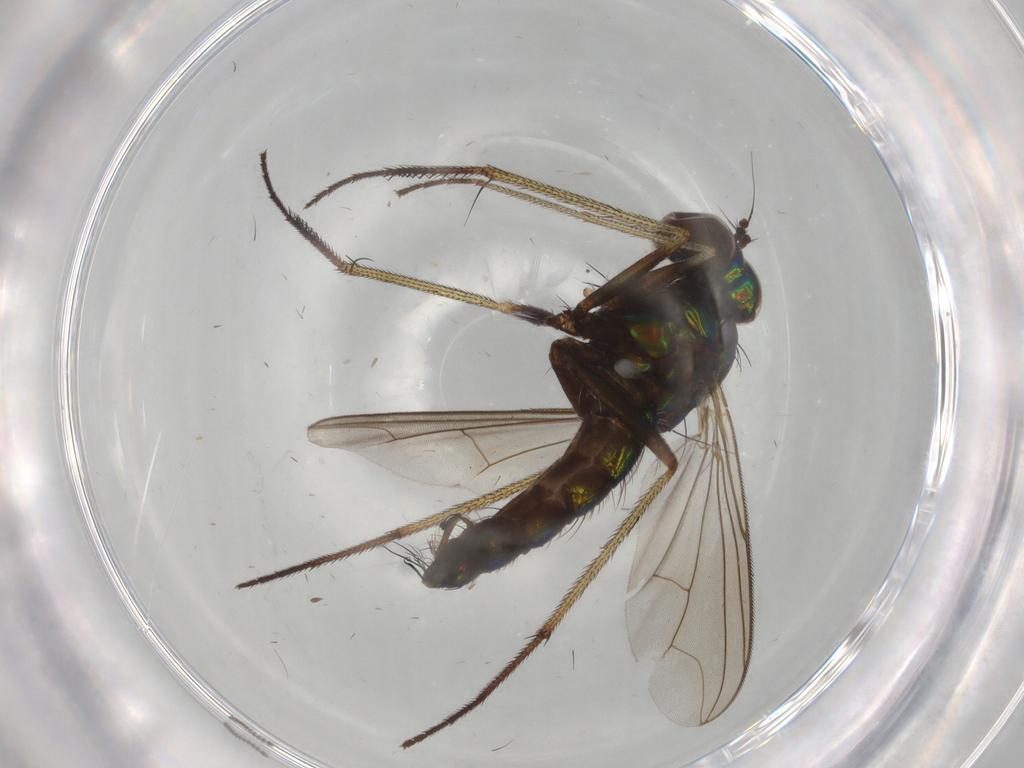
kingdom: Animalia
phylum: Arthropoda
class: Insecta
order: Diptera
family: Dolichopodidae
